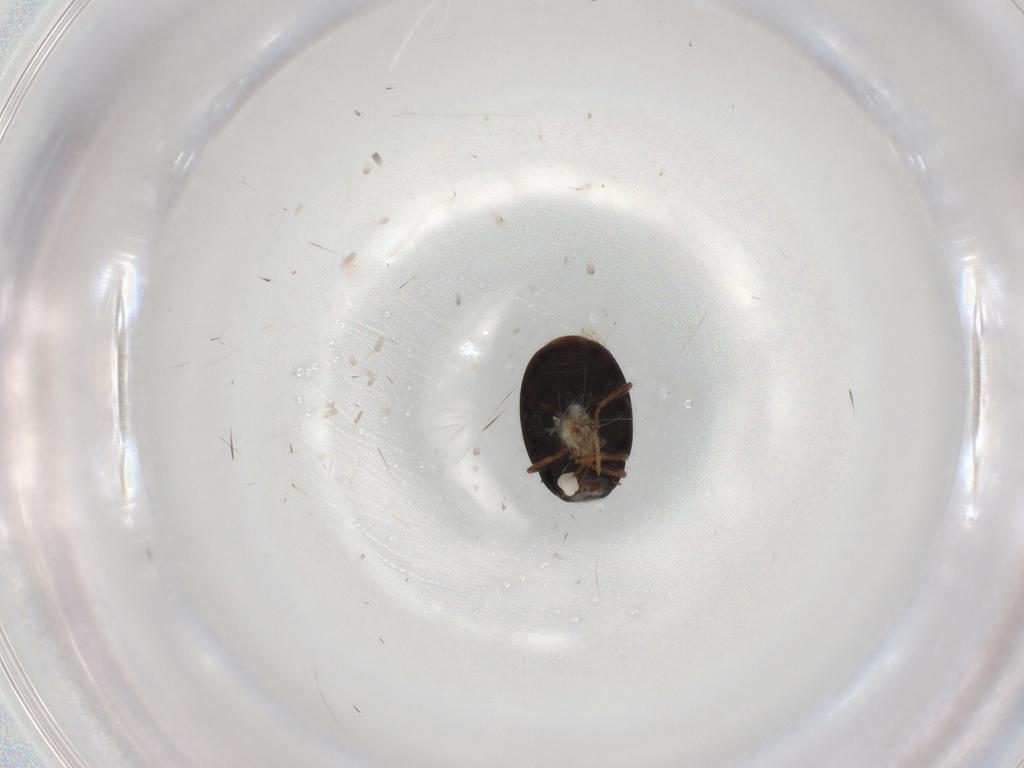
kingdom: Animalia
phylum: Arthropoda
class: Insecta
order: Coleoptera
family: Coccinellidae
